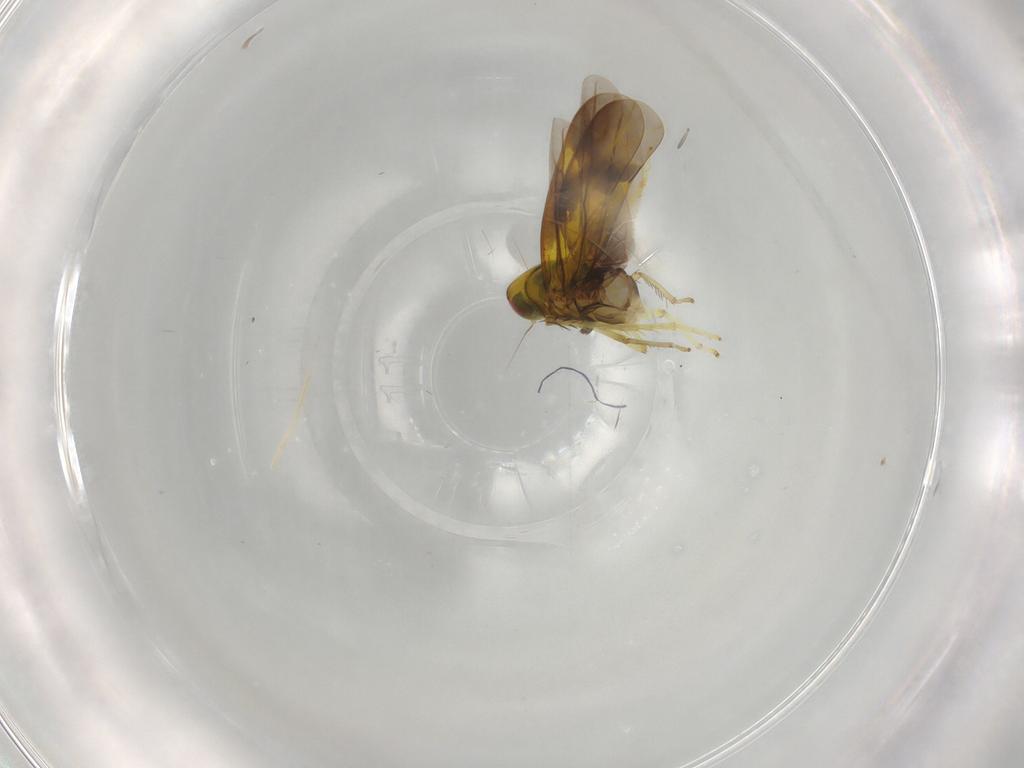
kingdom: Animalia
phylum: Arthropoda
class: Insecta
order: Hemiptera
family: Cicadellidae
